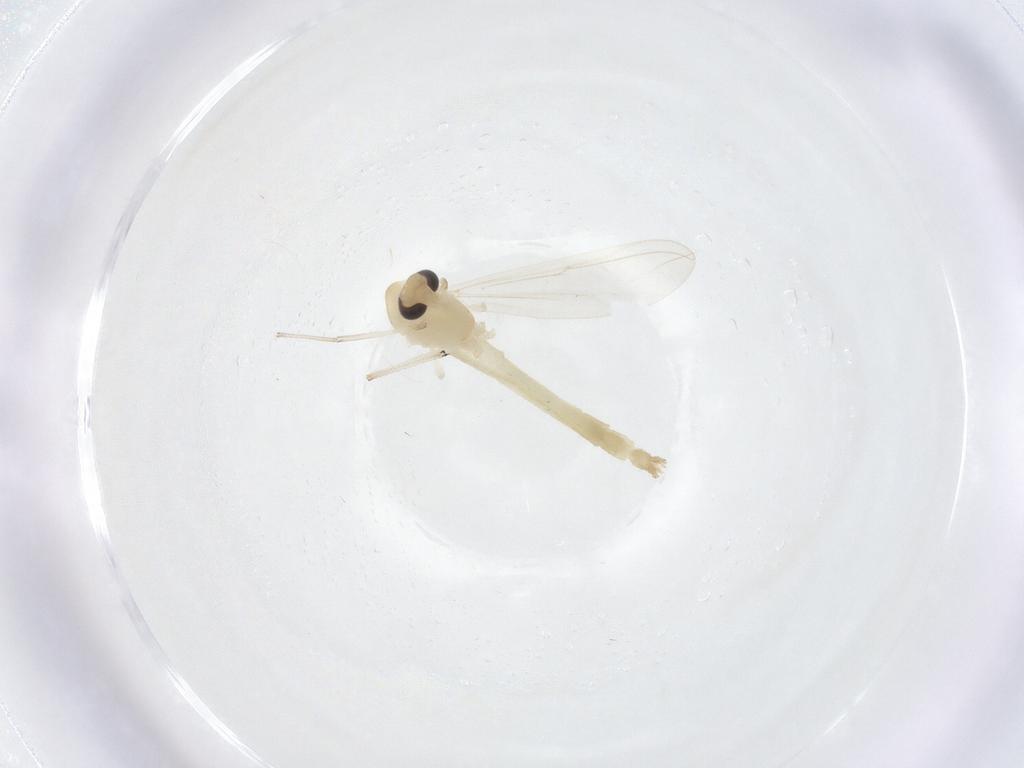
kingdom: Animalia
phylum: Arthropoda
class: Insecta
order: Diptera
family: Chironomidae
